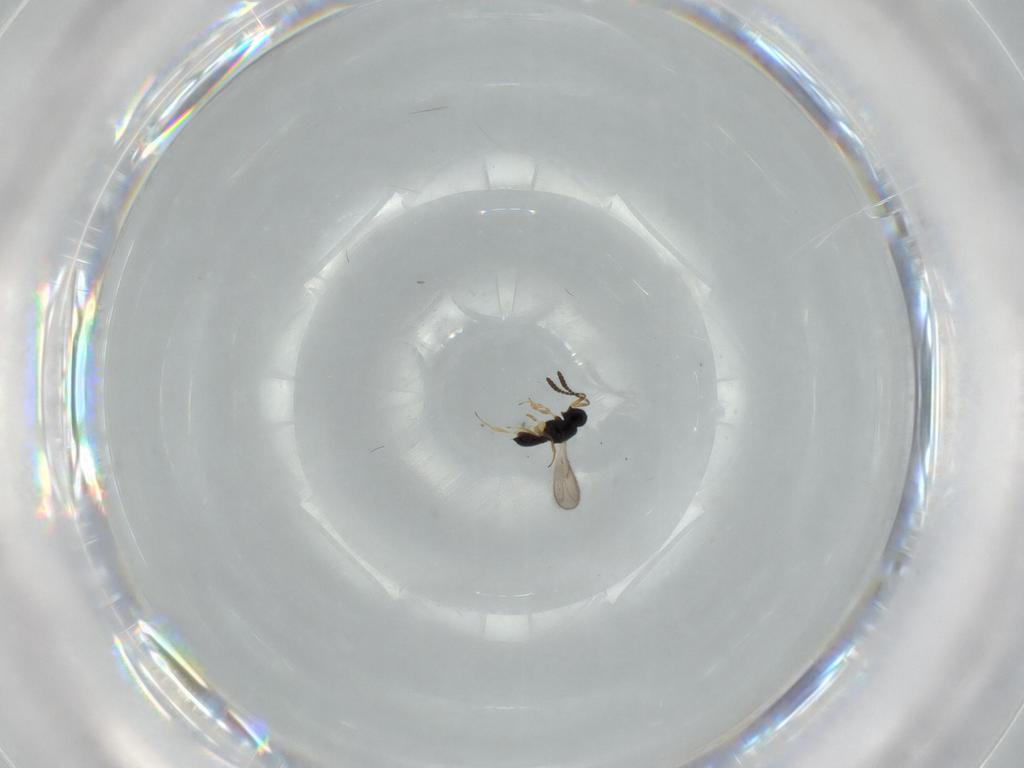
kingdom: Animalia
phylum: Arthropoda
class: Insecta
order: Hymenoptera
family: Scelionidae
